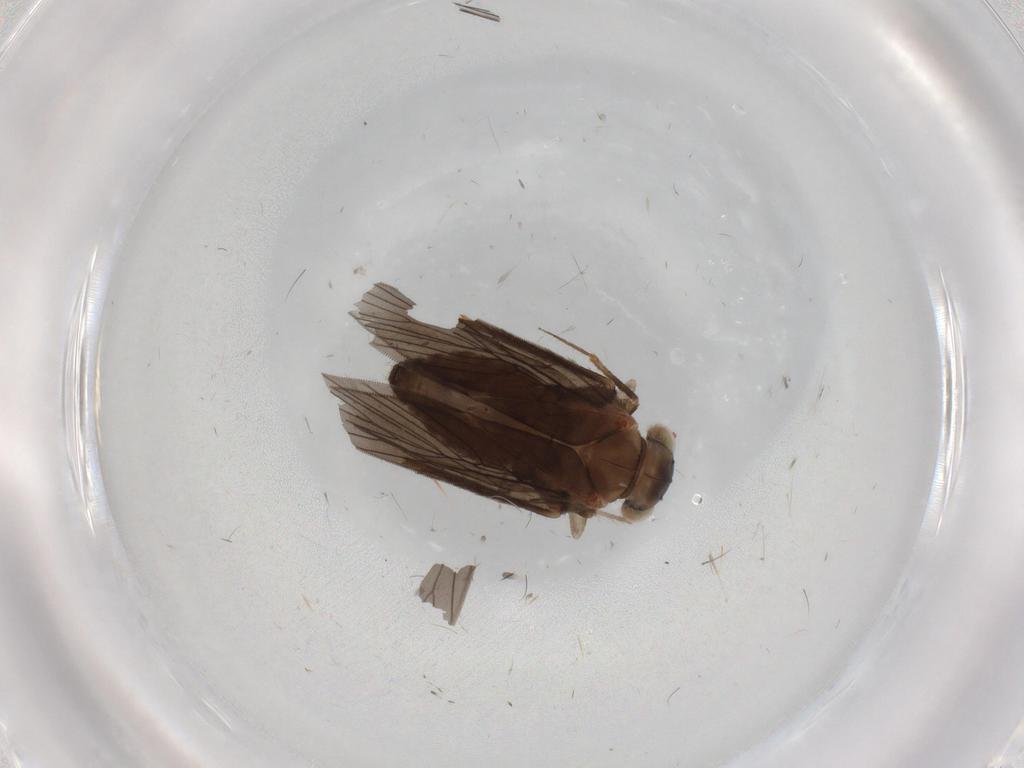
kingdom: Animalia
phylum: Arthropoda
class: Insecta
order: Psocodea
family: Lepidopsocidae
